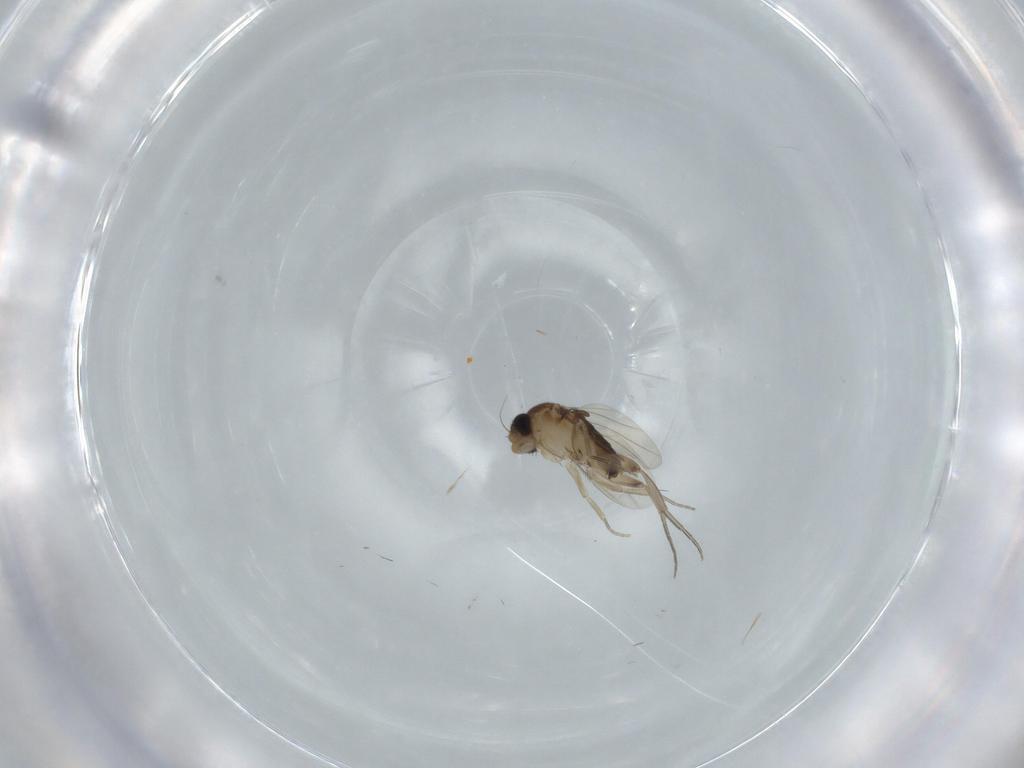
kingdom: Animalia
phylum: Arthropoda
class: Insecta
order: Diptera
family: Phoridae
